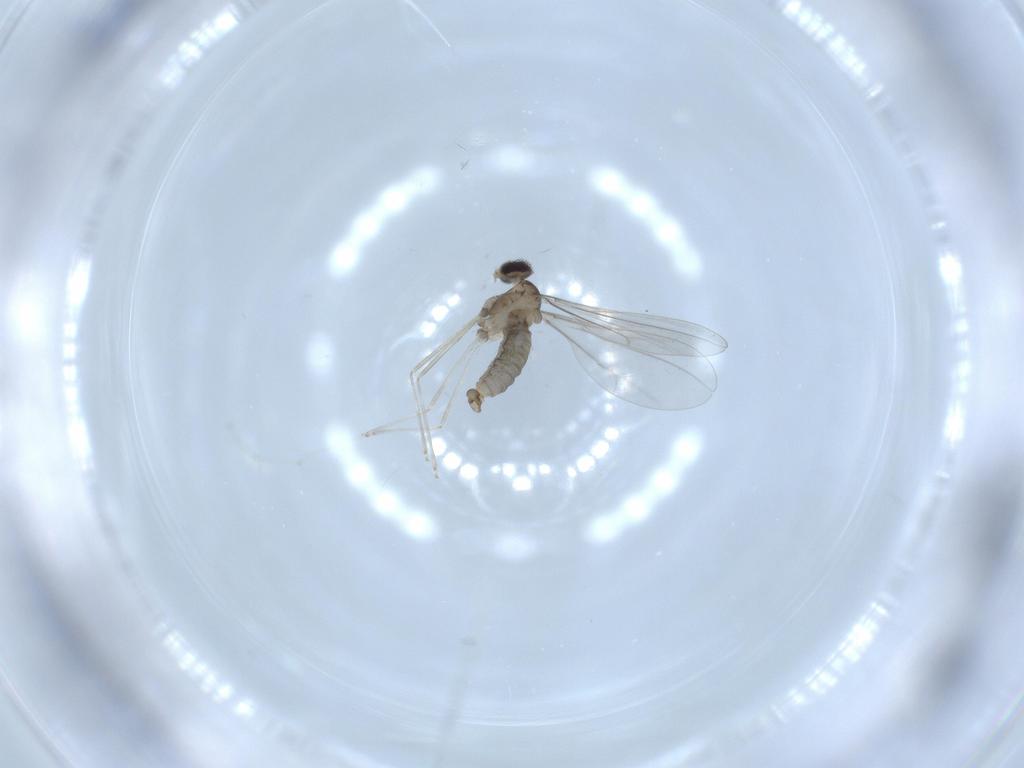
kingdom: Animalia
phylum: Arthropoda
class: Insecta
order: Diptera
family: Cecidomyiidae
